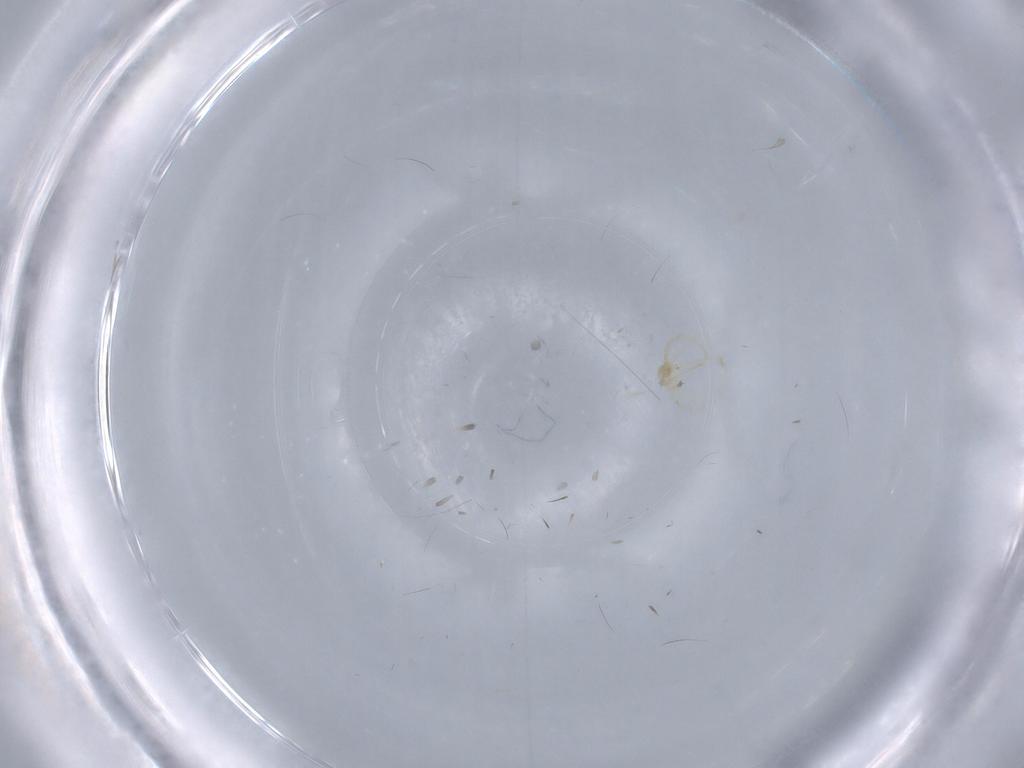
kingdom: Animalia
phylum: Arthropoda
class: Arachnida
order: Trombidiformes
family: Erythraeidae
